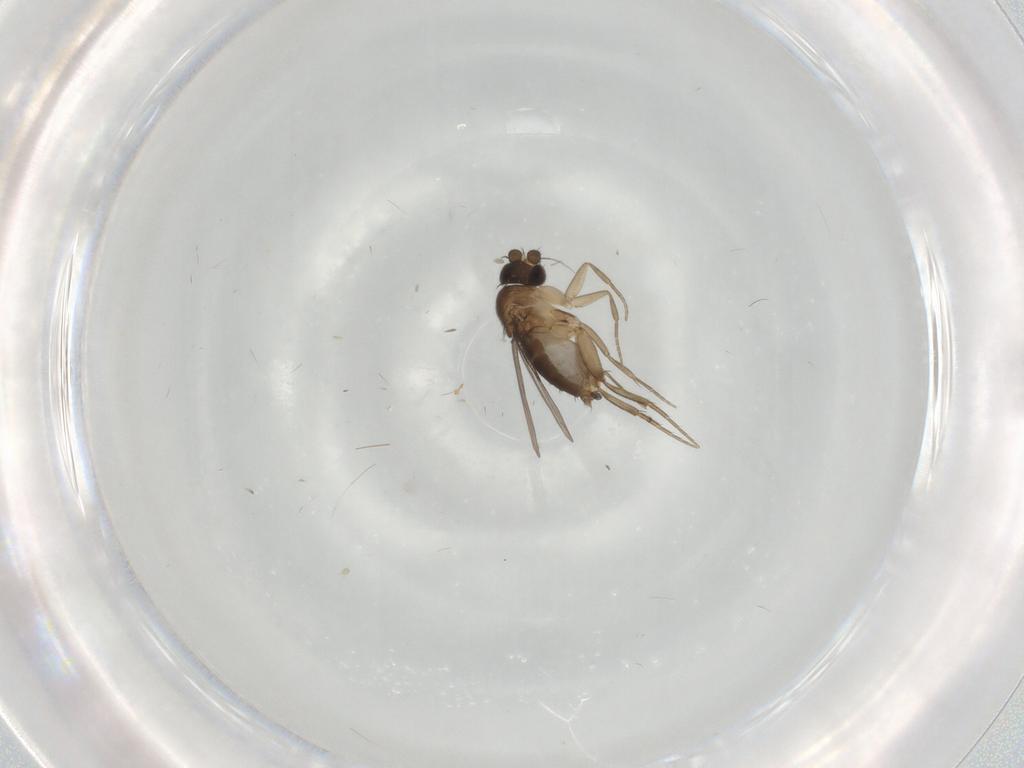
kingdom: Animalia
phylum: Arthropoda
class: Insecta
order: Diptera
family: Phoridae
